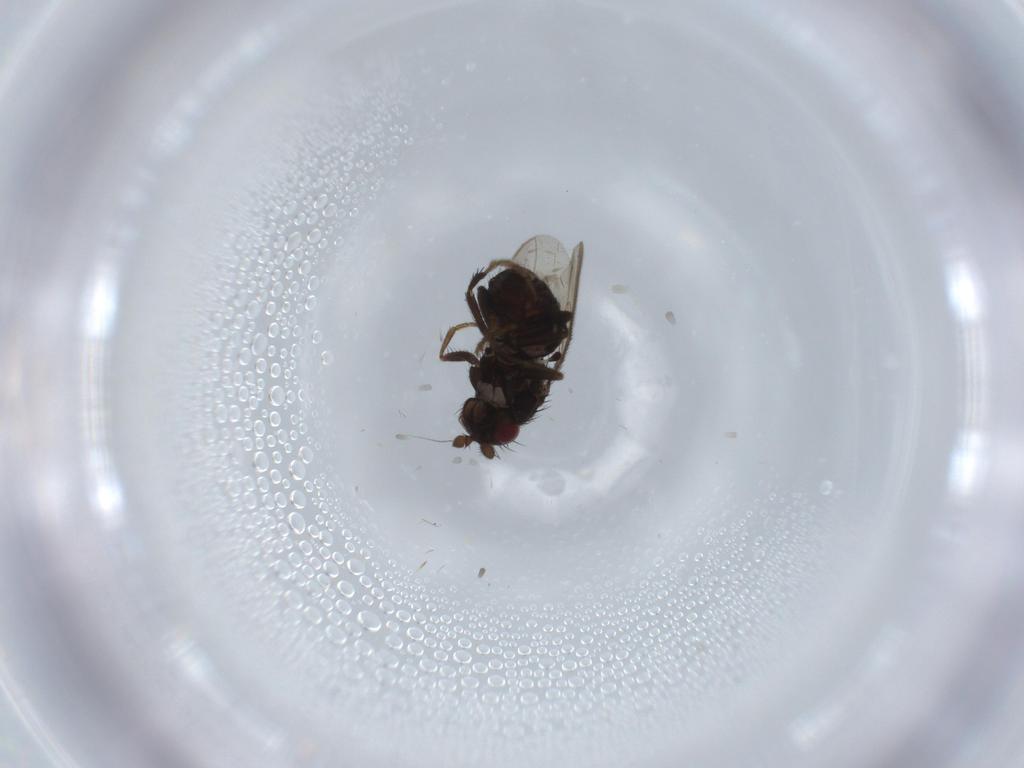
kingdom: Animalia
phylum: Arthropoda
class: Insecta
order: Diptera
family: Sphaeroceridae
